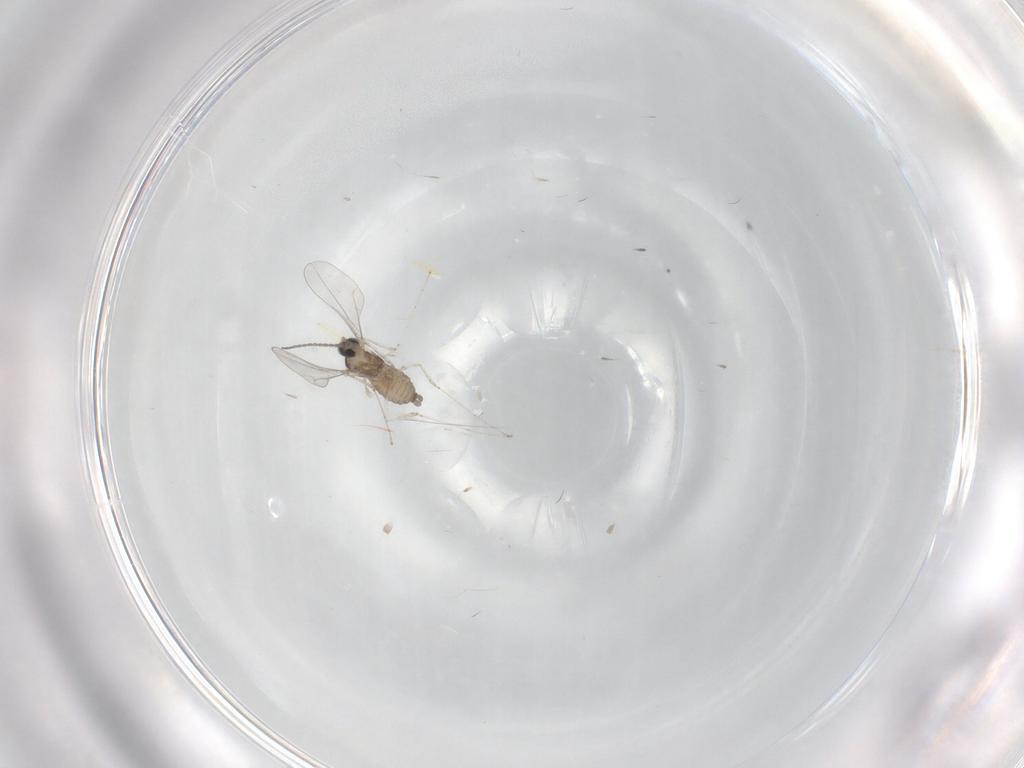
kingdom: Animalia
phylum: Arthropoda
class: Insecta
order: Diptera
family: Cecidomyiidae
